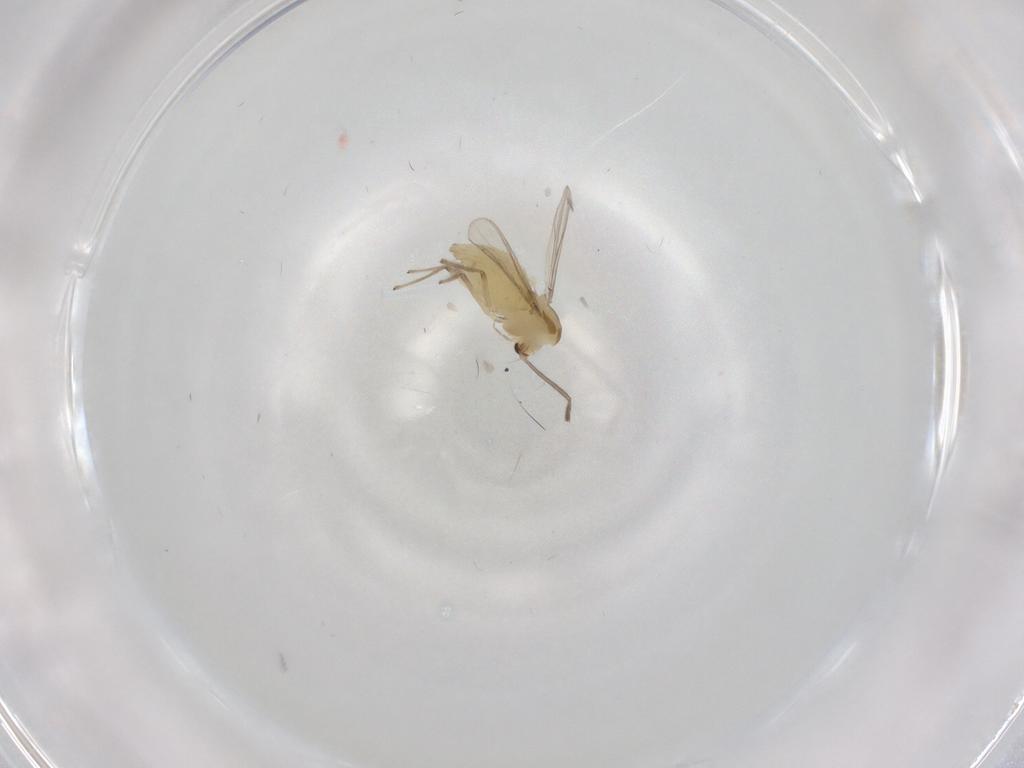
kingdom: Animalia
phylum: Arthropoda
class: Insecta
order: Diptera
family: Chironomidae
